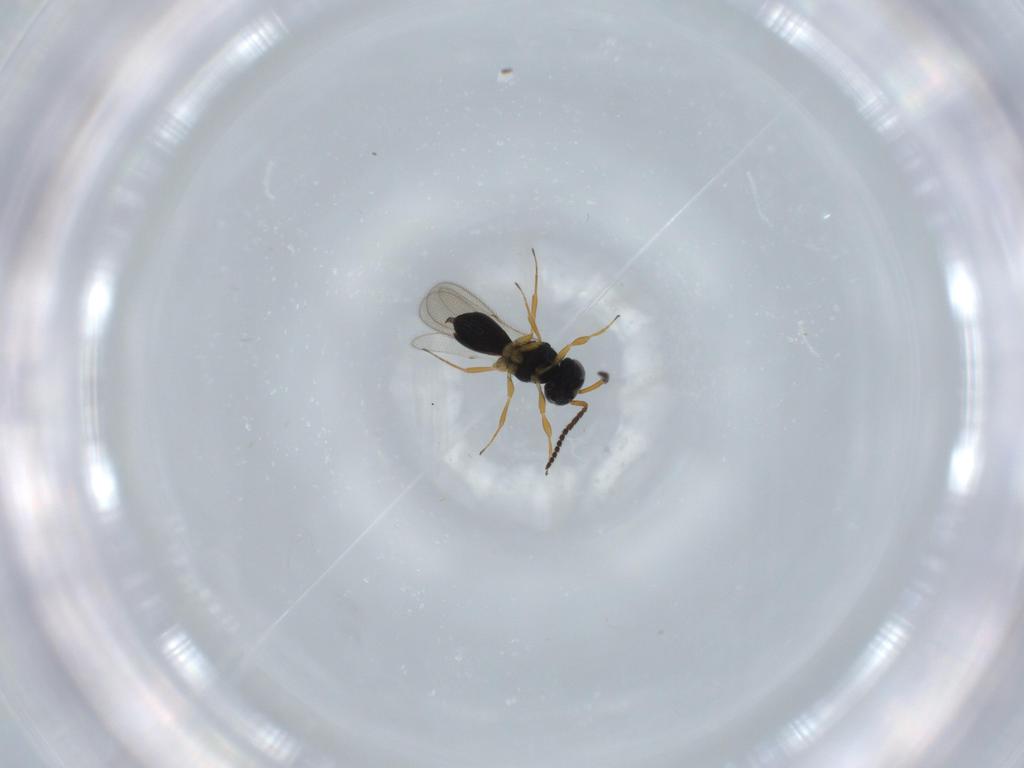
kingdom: Animalia
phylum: Arthropoda
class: Insecta
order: Hymenoptera
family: Scelionidae
